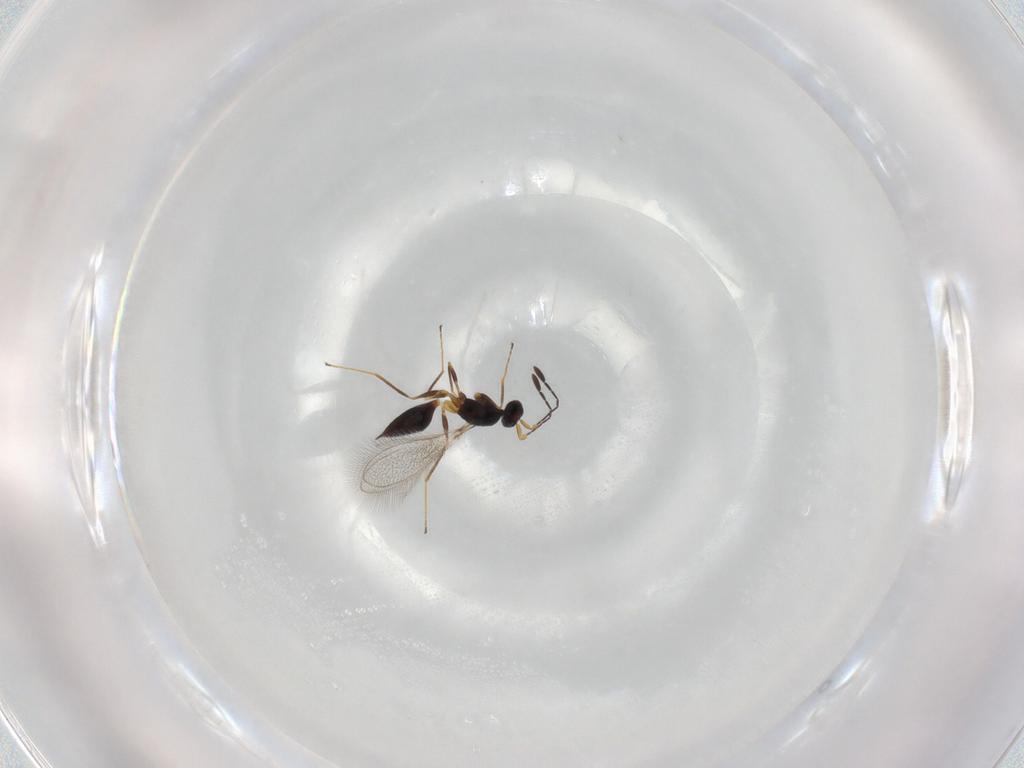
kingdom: Animalia
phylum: Arthropoda
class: Insecta
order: Hymenoptera
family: Mymaridae
